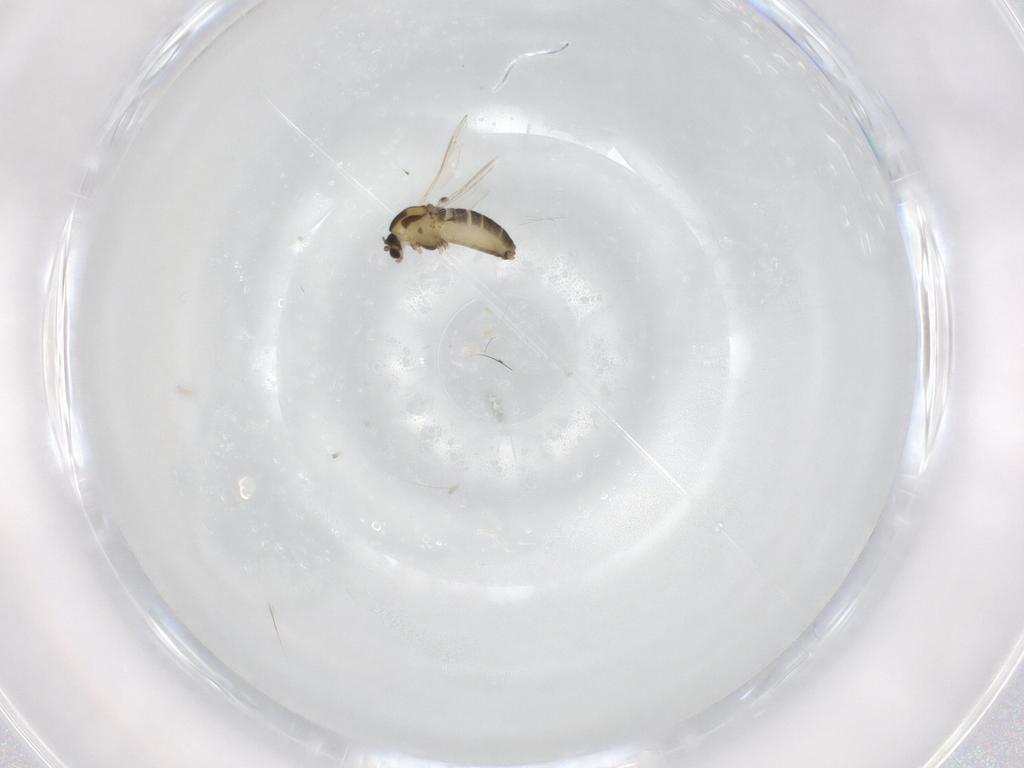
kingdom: Animalia
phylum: Arthropoda
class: Insecta
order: Diptera
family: Chironomidae
